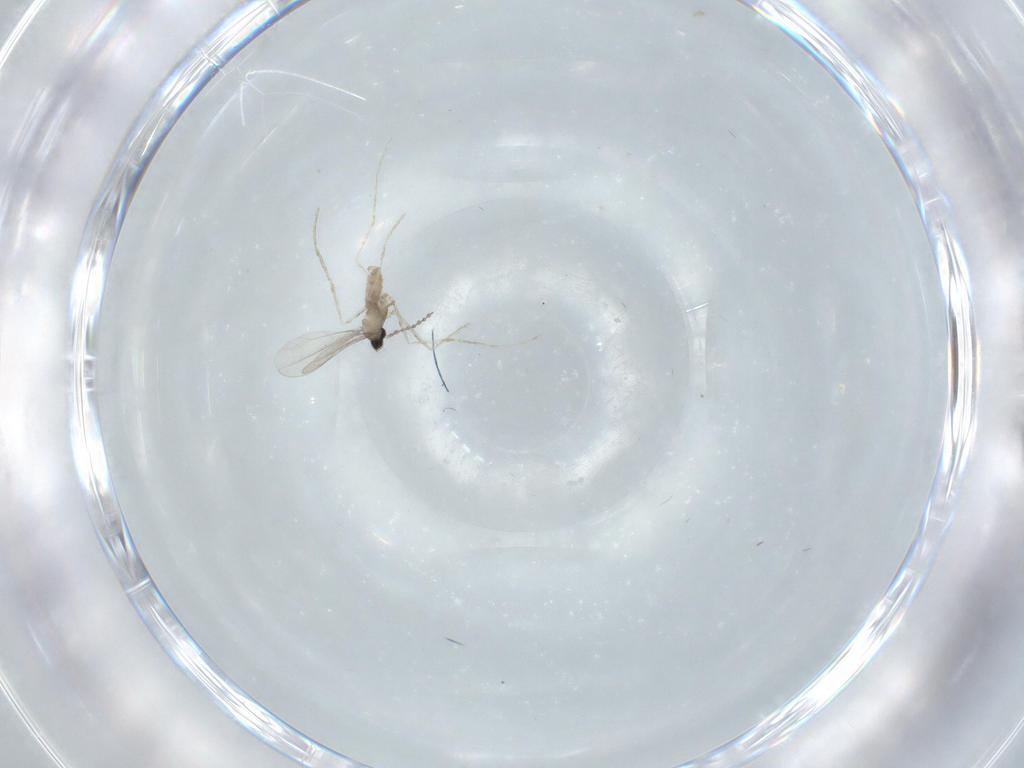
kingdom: Animalia
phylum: Arthropoda
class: Insecta
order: Diptera
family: Cecidomyiidae
